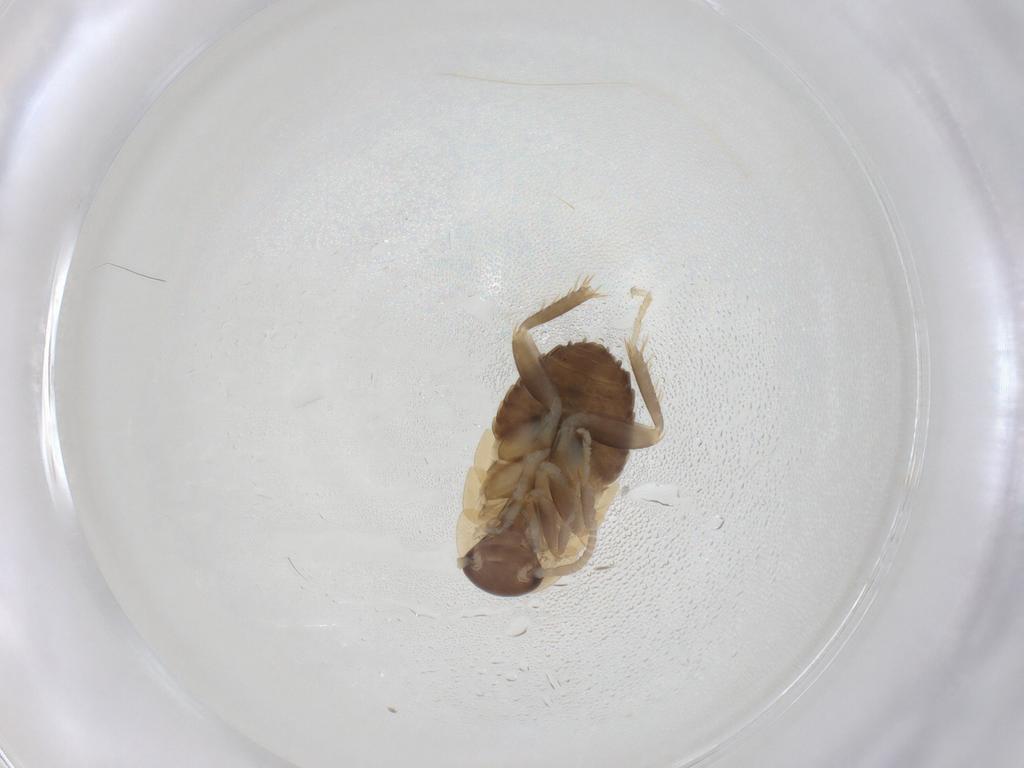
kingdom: Animalia
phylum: Arthropoda
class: Insecta
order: Blattodea
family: Ectobiidae
